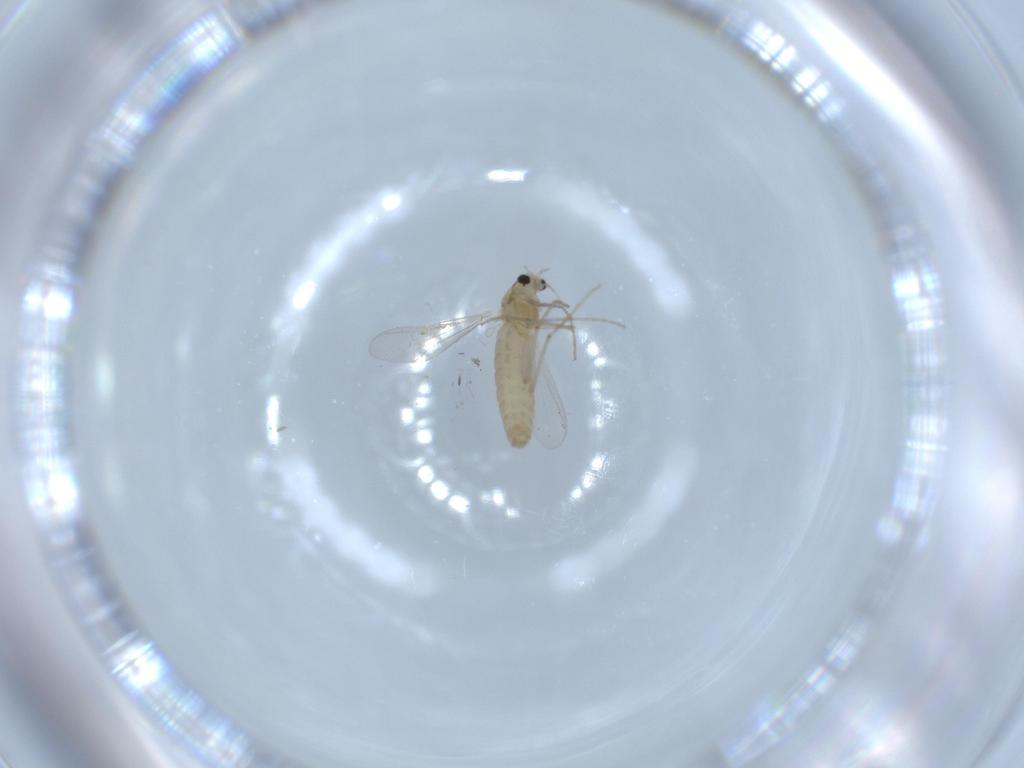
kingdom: Animalia
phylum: Arthropoda
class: Insecta
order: Diptera
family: Chironomidae
